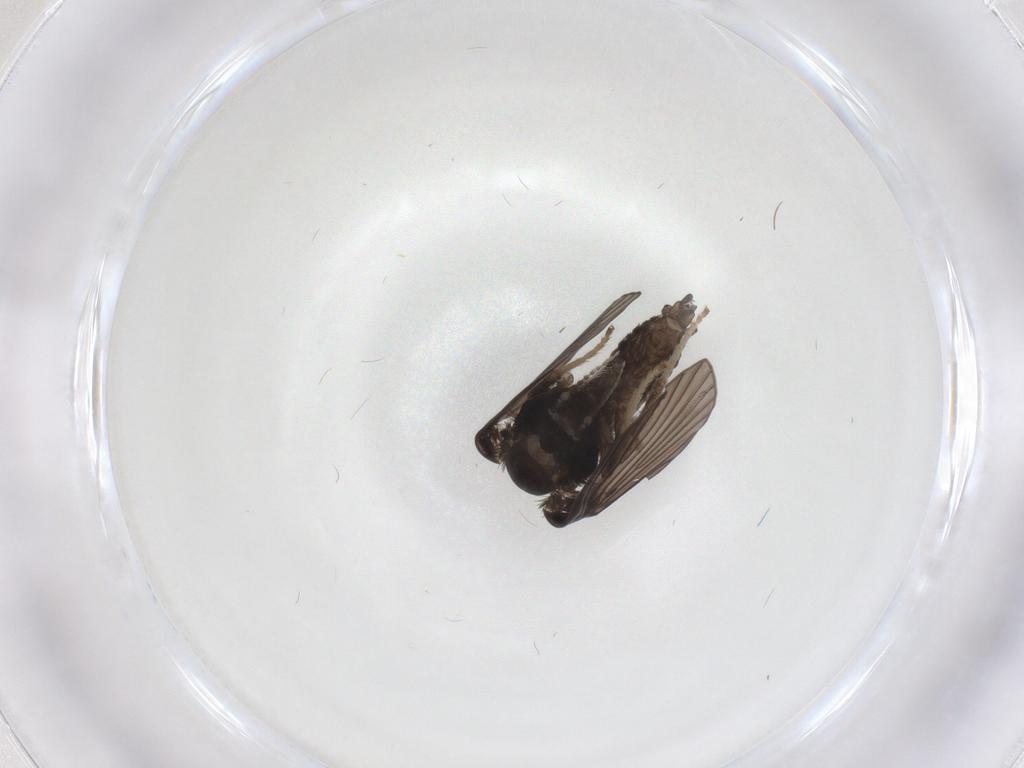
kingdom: Animalia
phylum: Arthropoda
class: Insecta
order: Diptera
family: Psychodidae
